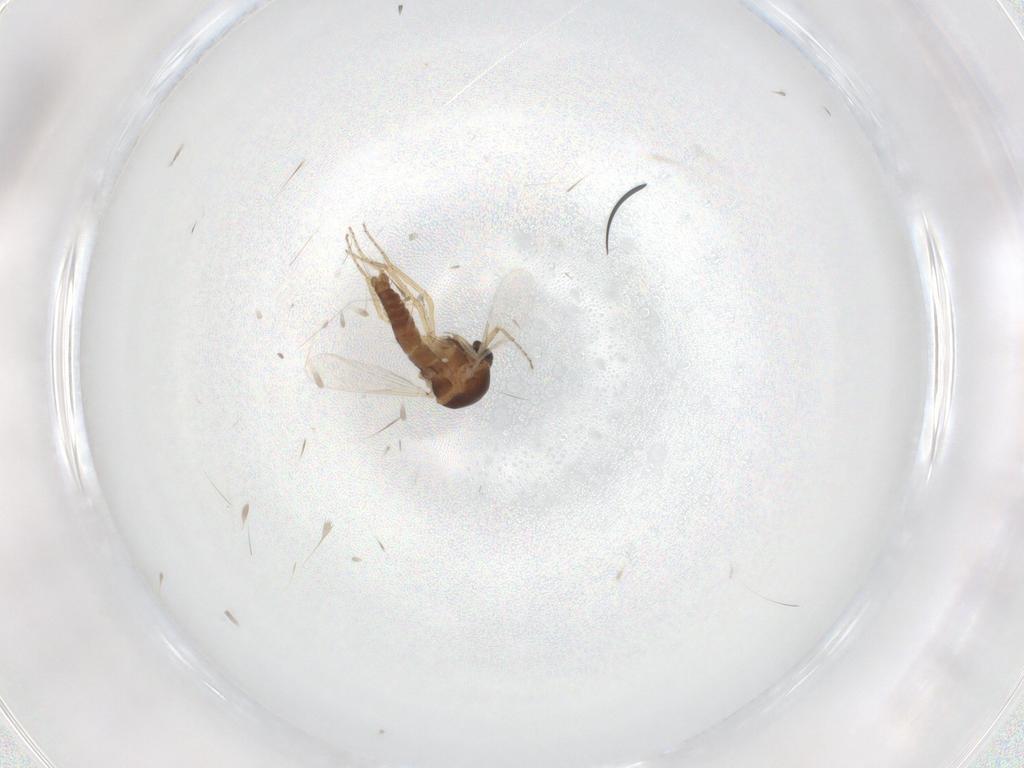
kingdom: Animalia
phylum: Arthropoda
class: Insecta
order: Diptera
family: Ceratopogonidae
